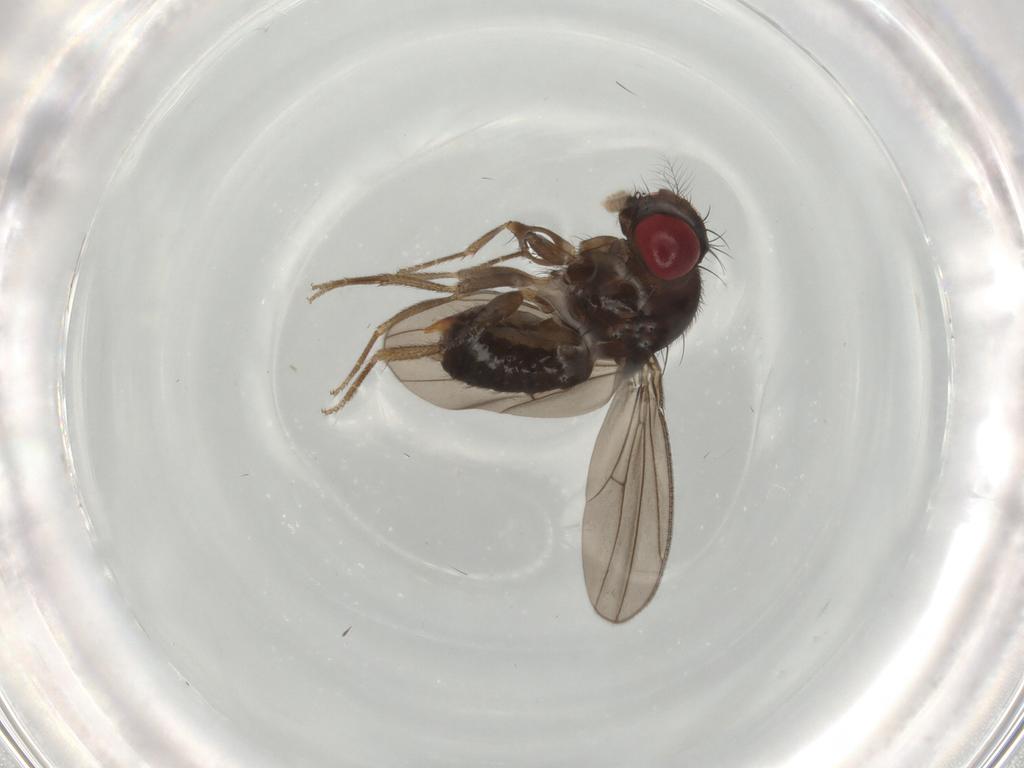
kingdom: Animalia
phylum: Arthropoda
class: Insecta
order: Diptera
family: Drosophilidae
